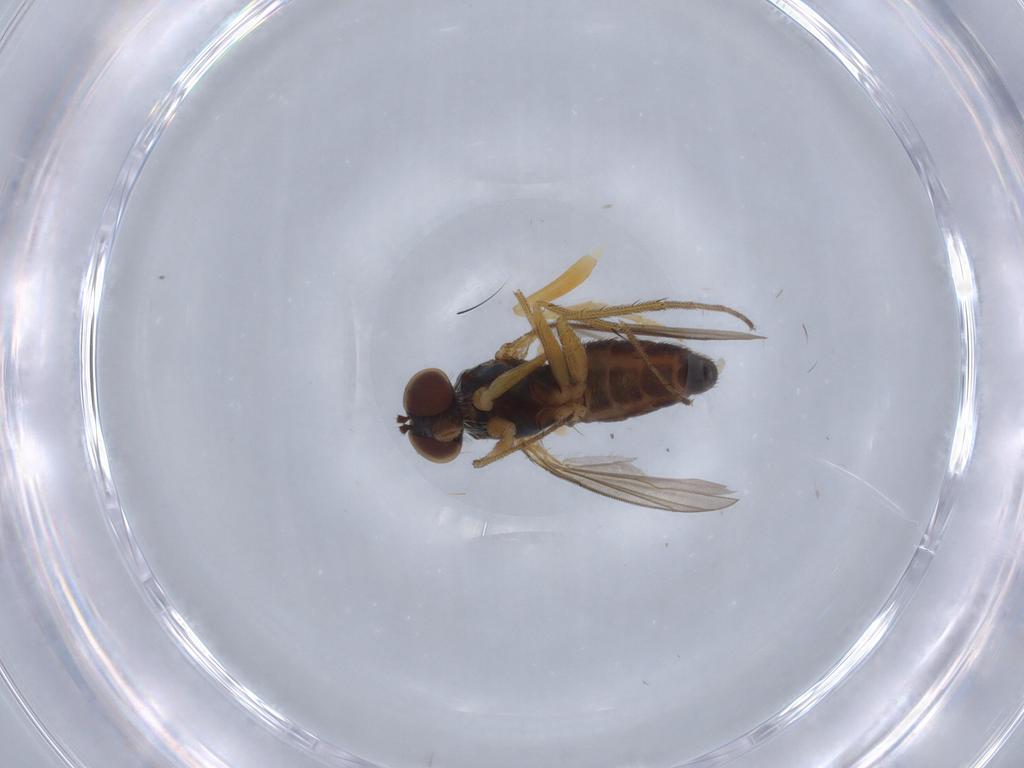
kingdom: Animalia
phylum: Arthropoda
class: Insecta
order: Diptera
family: Dolichopodidae
